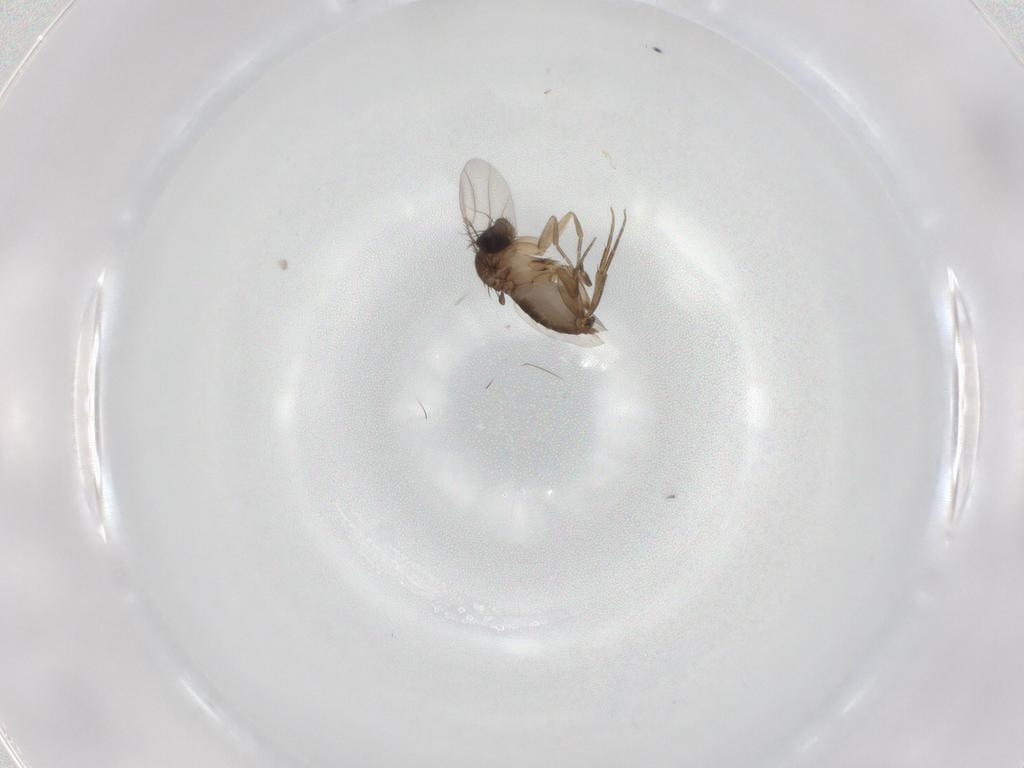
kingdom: Animalia
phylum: Arthropoda
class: Insecta
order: Diptera
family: Phoridae
